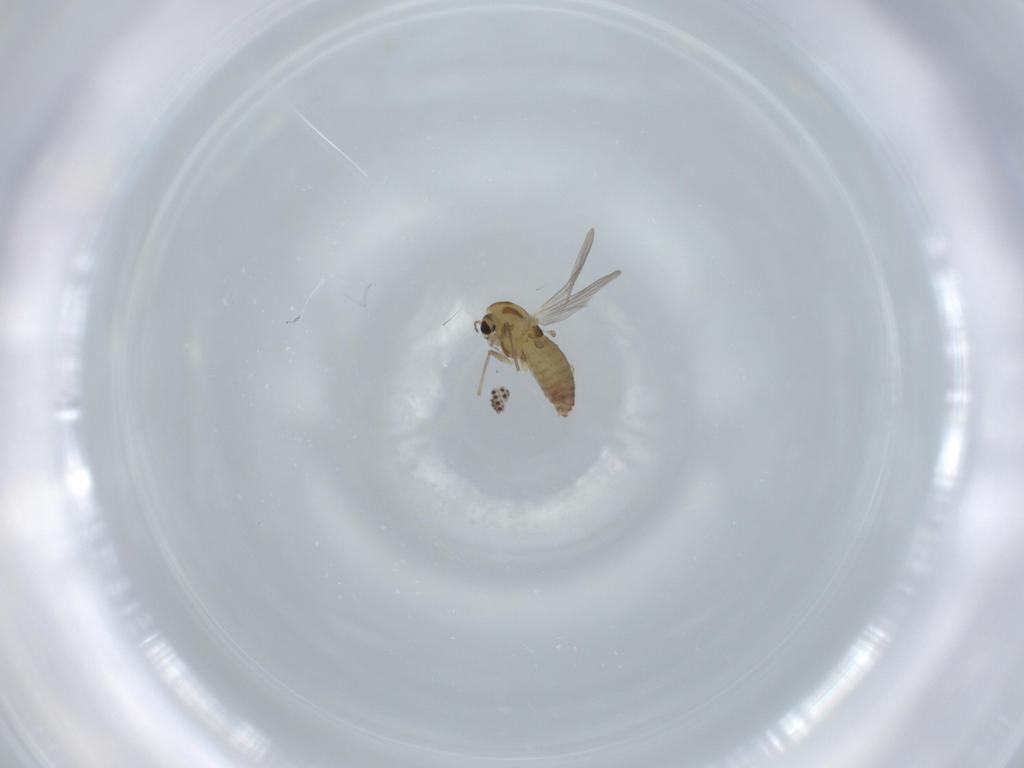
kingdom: Animalia
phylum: Arthropoda
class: Insecta
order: Diptera
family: Chironomidae
